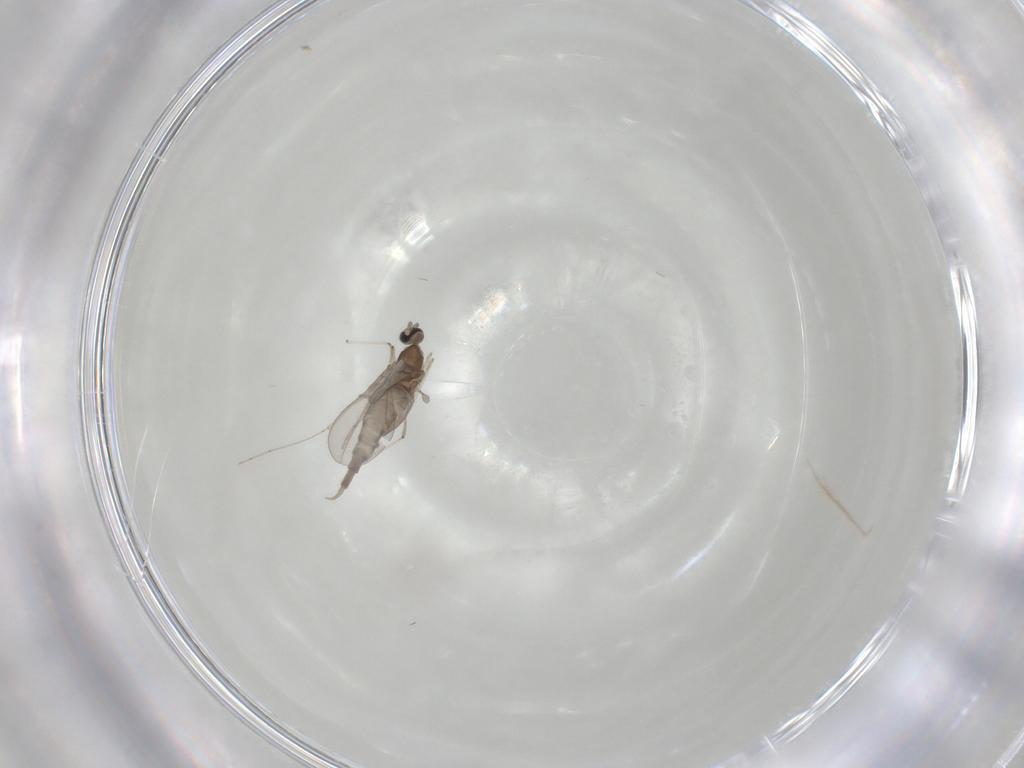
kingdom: Animalia
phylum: Arthropoda
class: Insecta
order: Diptera
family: Cecidomyiidae
